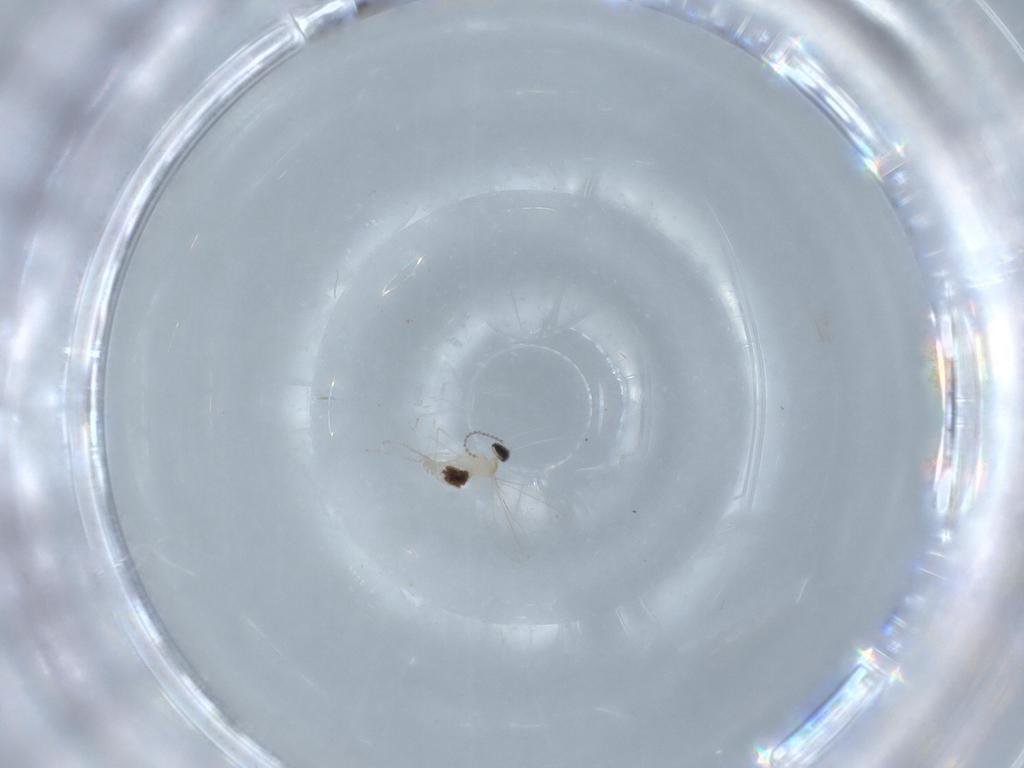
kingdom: Animalia
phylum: Arthropoda
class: Insecta
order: Diptera
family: Cecidomyiidae
